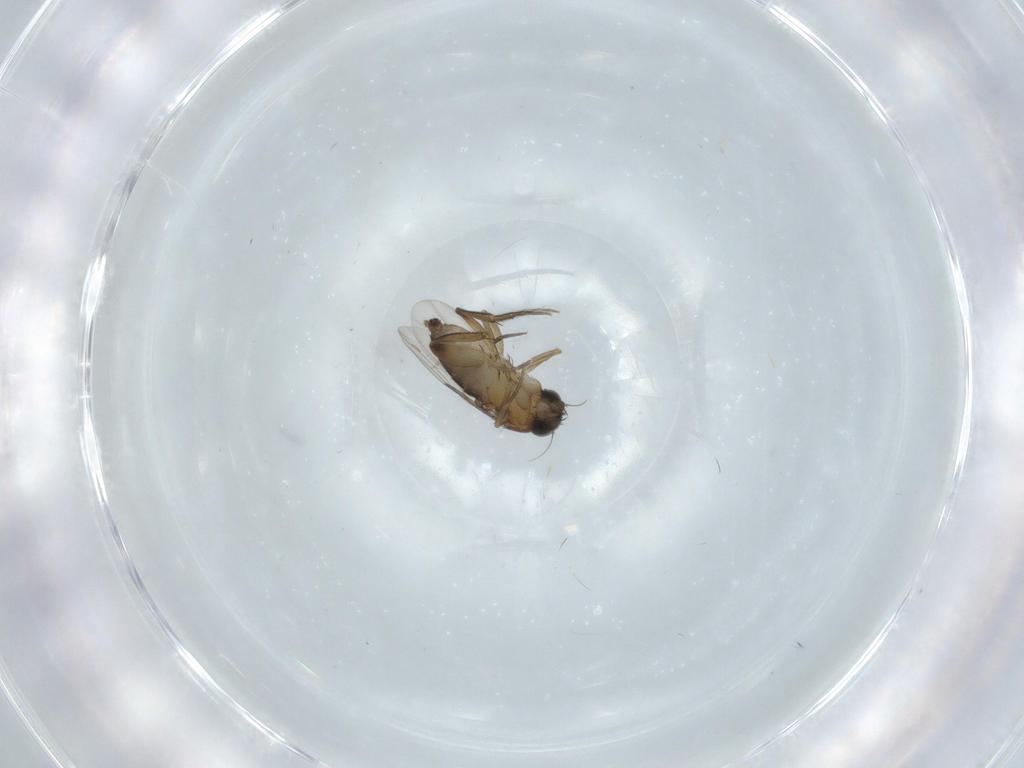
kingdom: Animalia
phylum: Arthropoda
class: Insecta
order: Diptera
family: Phoridae
